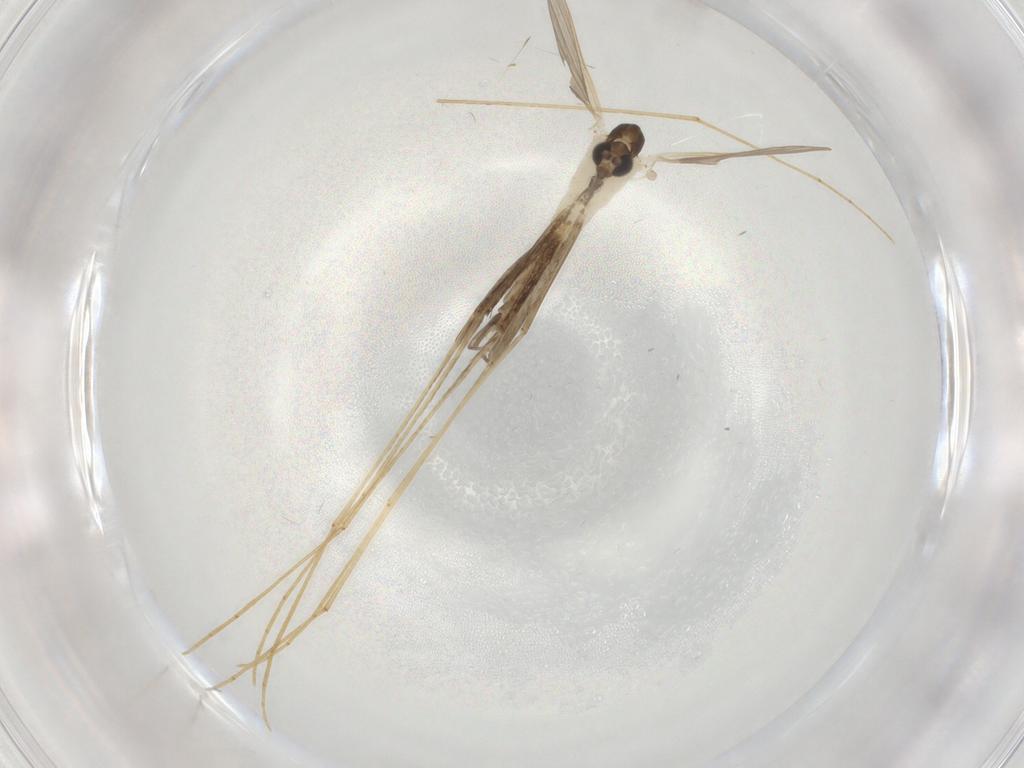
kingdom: Animalia
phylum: Arthropoda
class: Insecta
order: Diptera
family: Psychodidae
